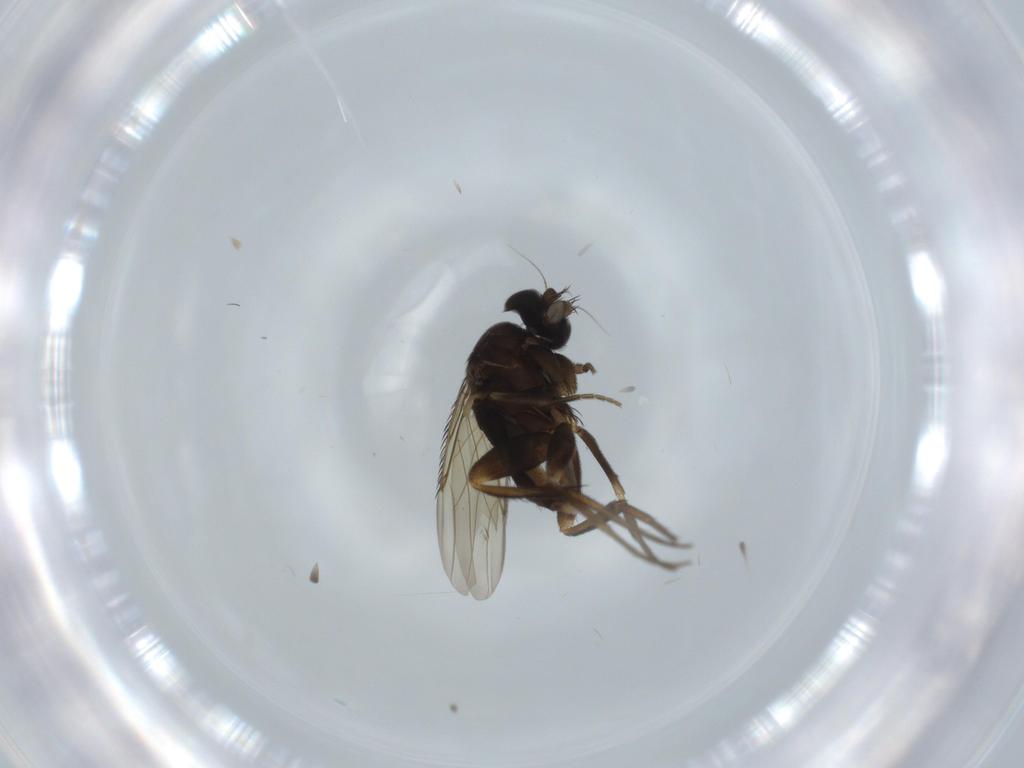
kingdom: Animalia
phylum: Arthropoda
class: Insecta
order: Diptera
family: Phoridae
